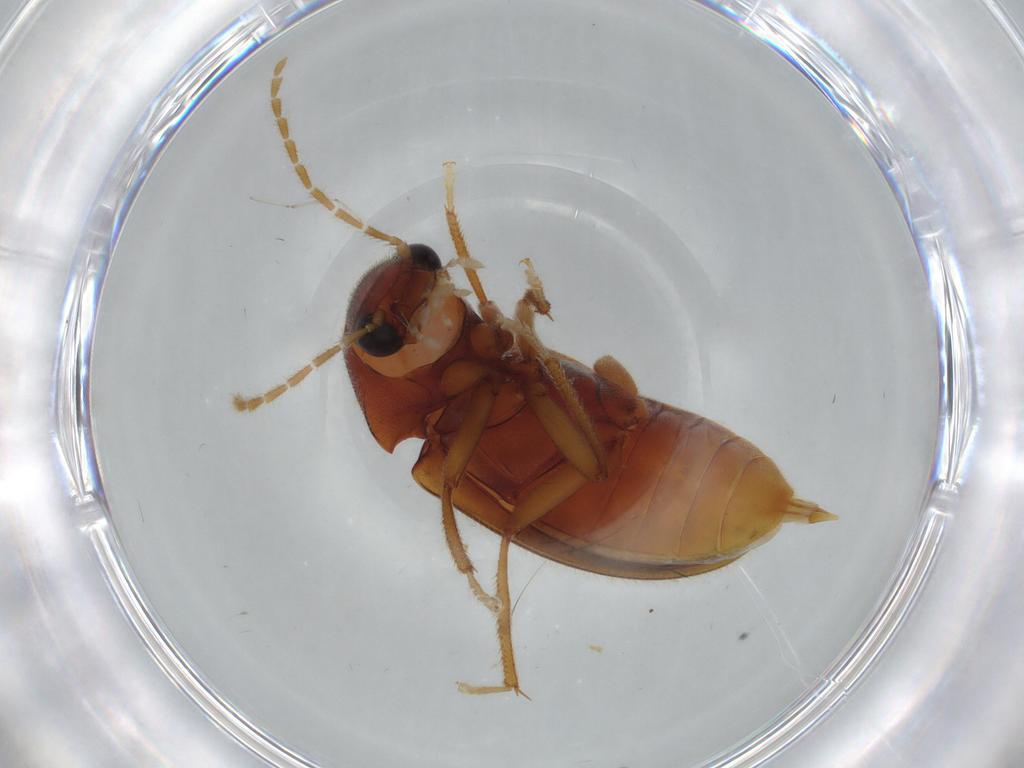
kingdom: Animalia
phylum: Arthropoda
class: Insecta
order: Coleoptera
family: Ptilodactylidae
